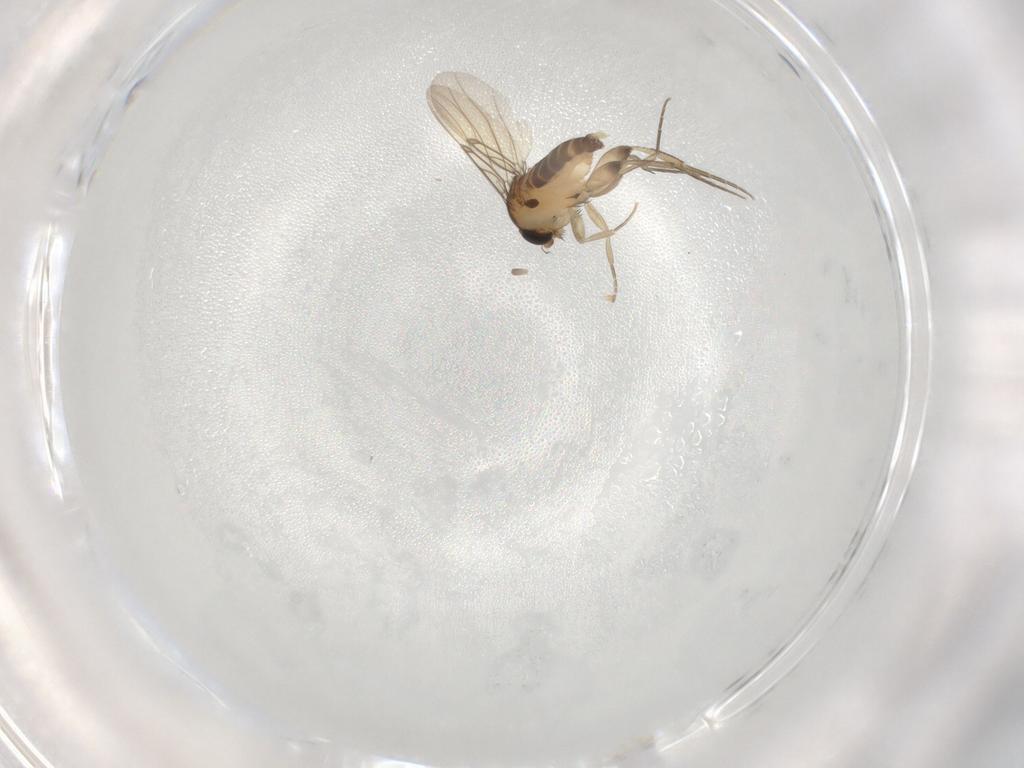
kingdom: Animalia
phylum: Arthropoda
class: Insecta
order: Diptera
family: Phoridae
